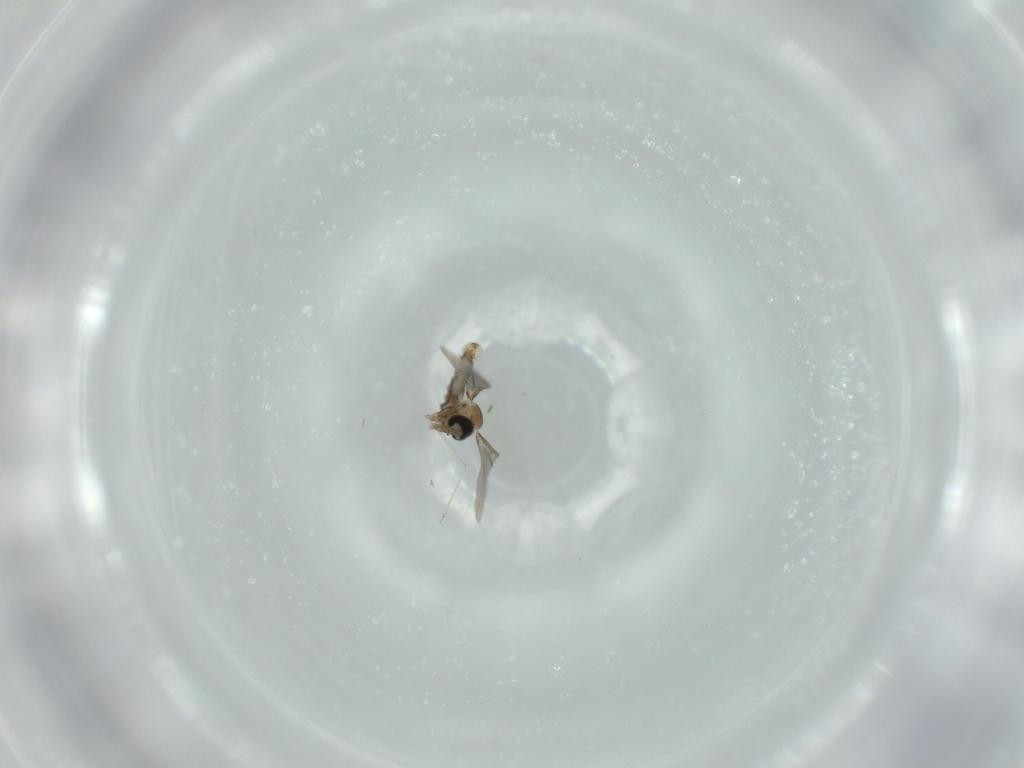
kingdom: Animalia
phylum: Arthropoda
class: Insecta
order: Diptera
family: Cecidomyiidae
